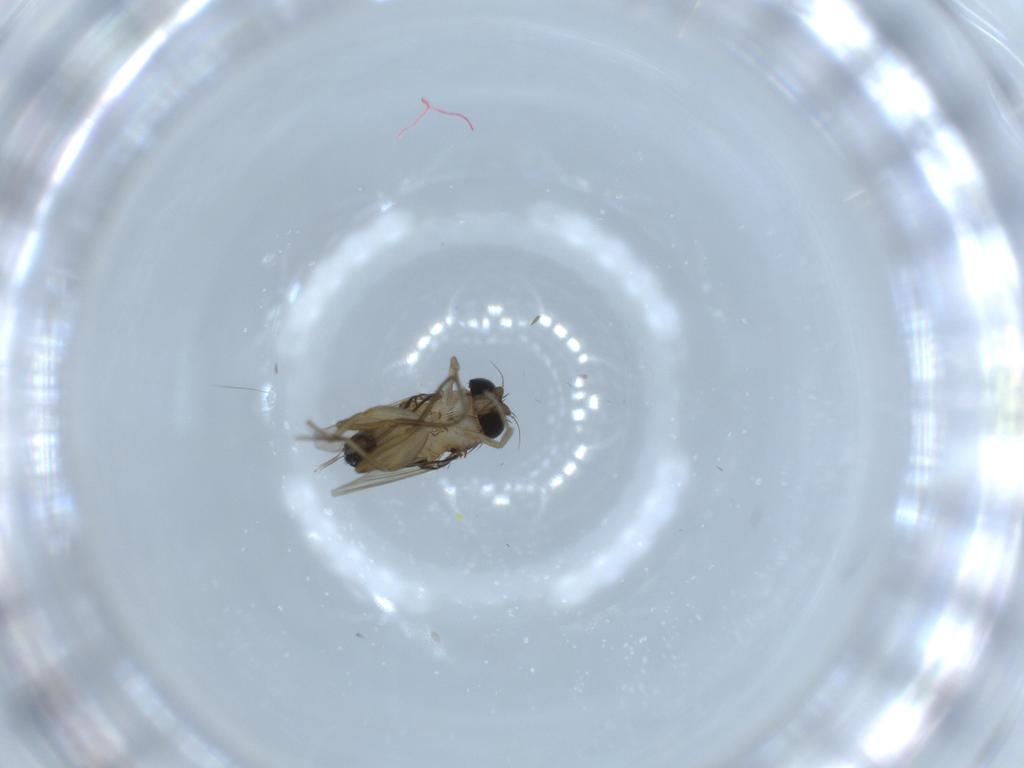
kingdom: Animalia
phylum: Arthropoda
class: Insecta
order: Diptera
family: Phoridae
